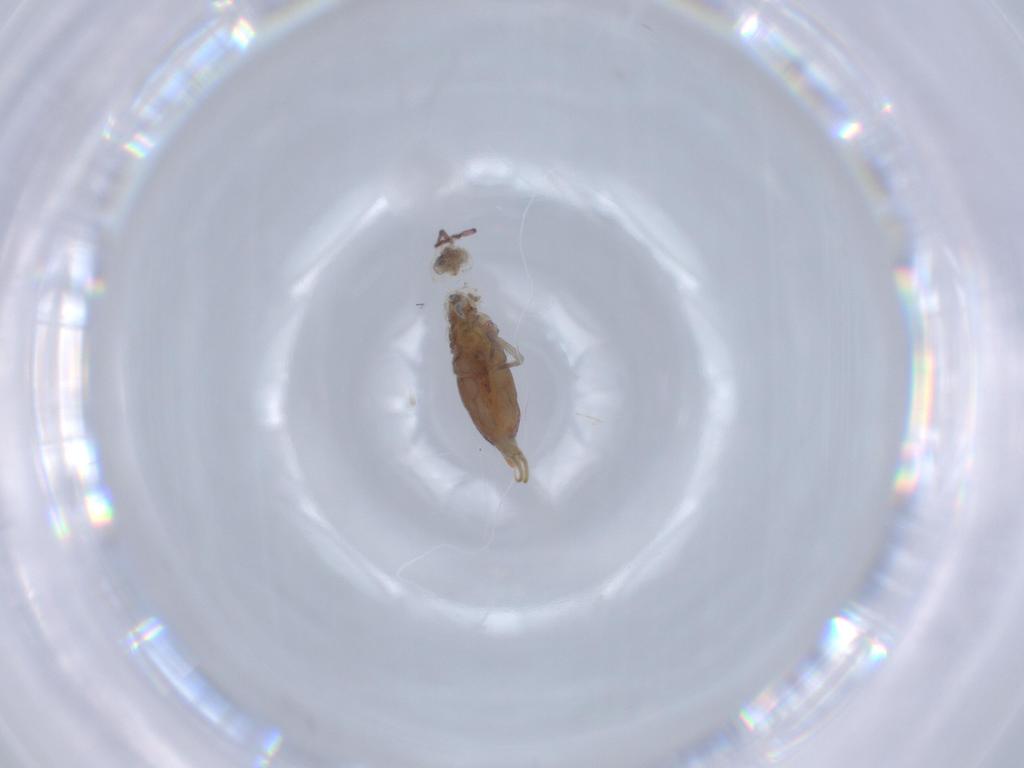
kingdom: Animalia
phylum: Arthropoda
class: Collembola
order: Entomobryomorpha
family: Isotomidae
